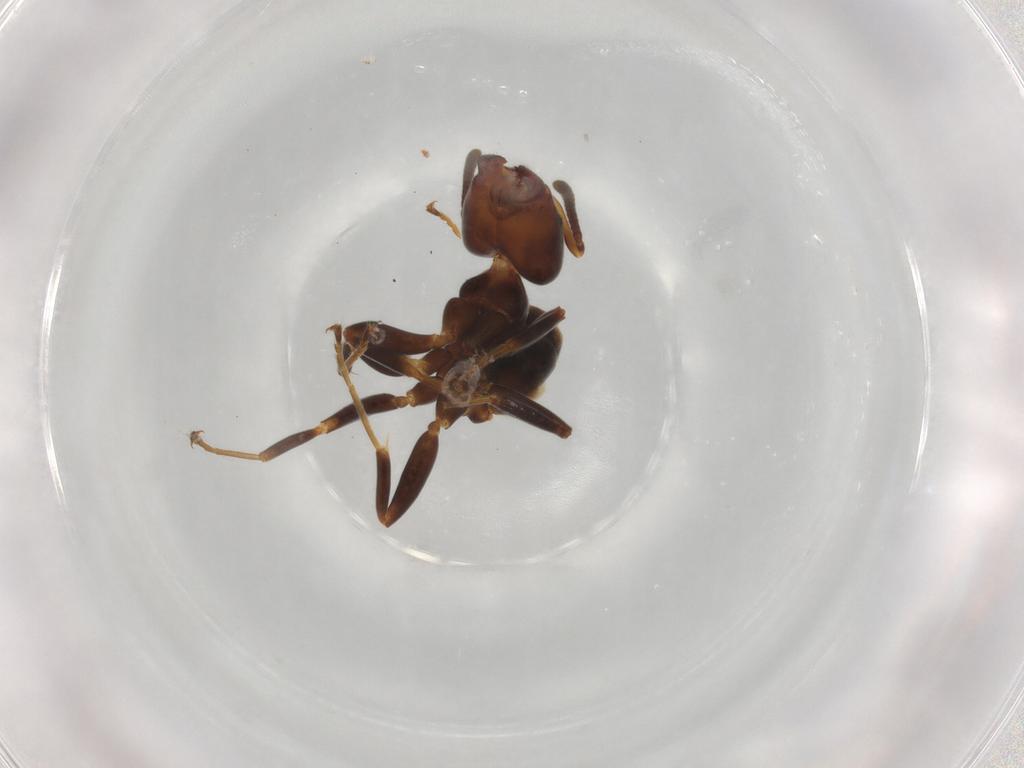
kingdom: Animalia
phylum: Arthropoda
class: Insecta
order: Hymenoptera
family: Formicidae
